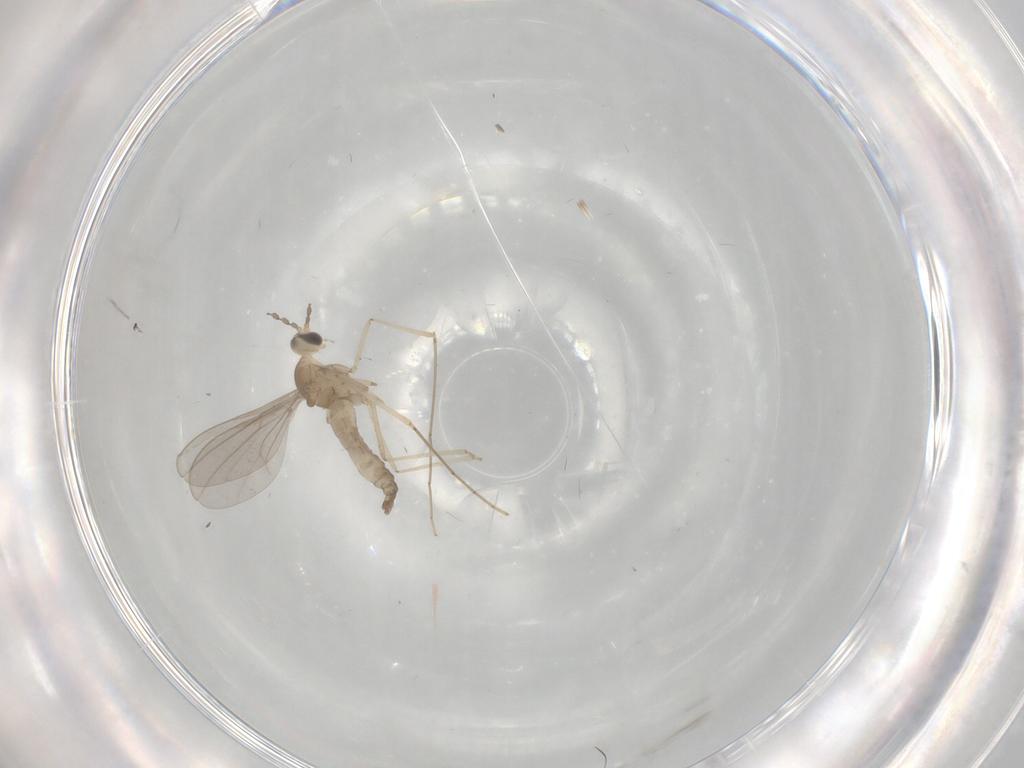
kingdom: Animalia
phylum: Arthropoda
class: Insecta
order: Diptera
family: Cecidomyiidae
